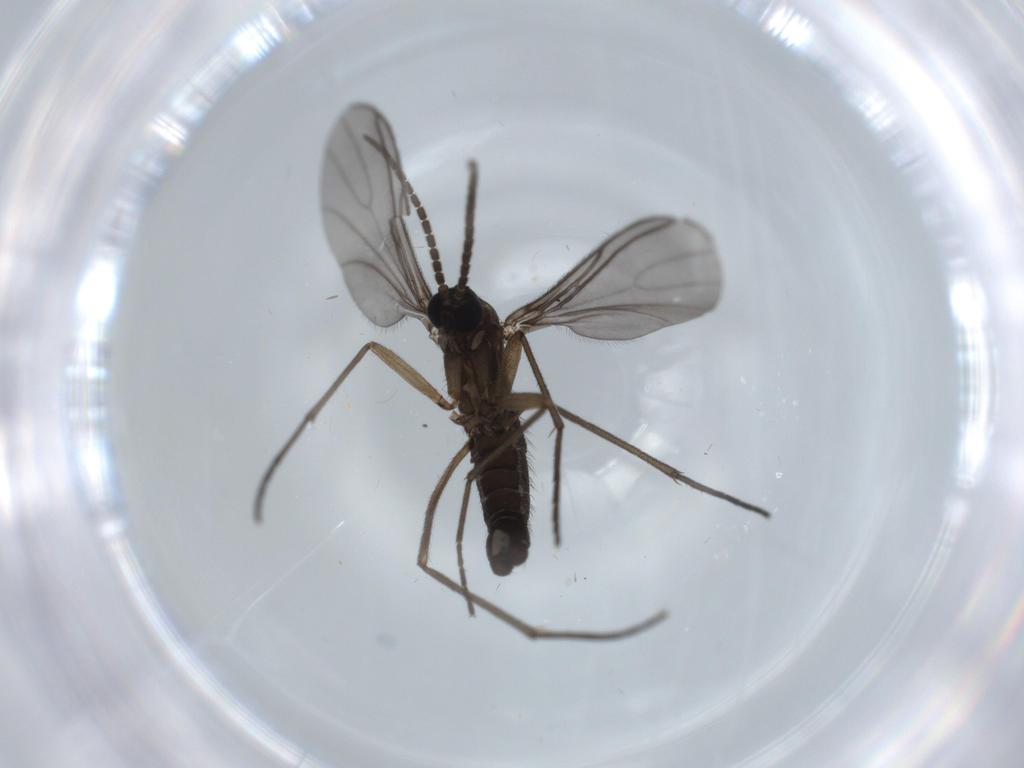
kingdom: Animalia
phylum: Arthropoda
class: Insecta
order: Diptera
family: Sciaridae
